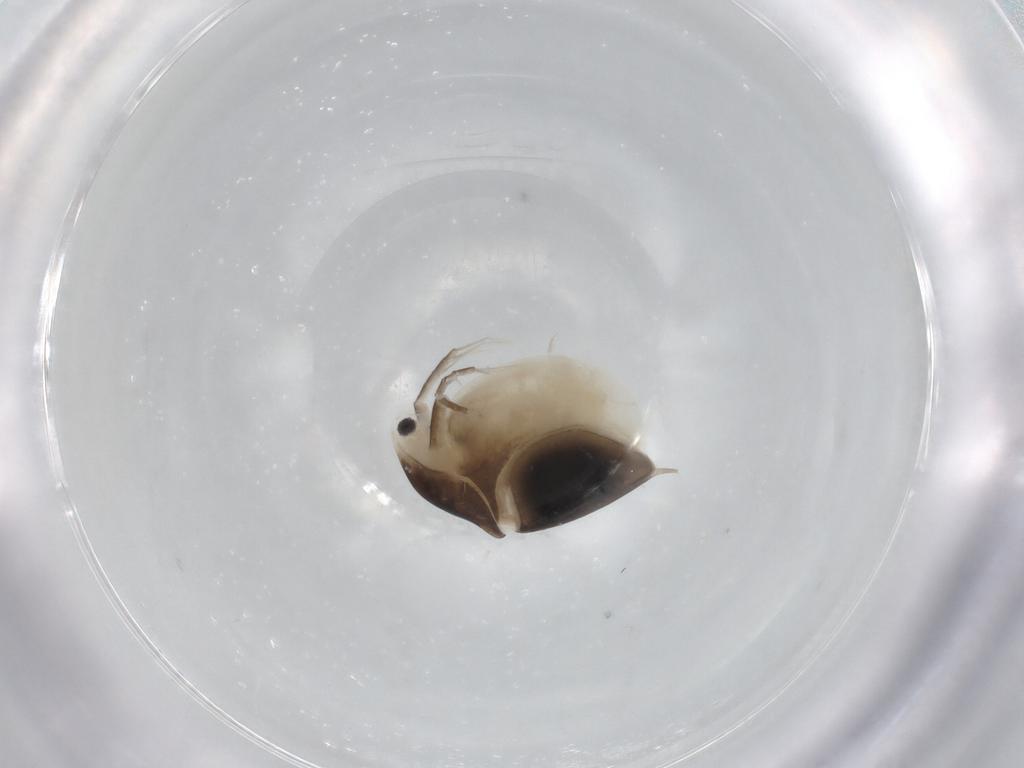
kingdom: Animalia
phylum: Arthropoda
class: Branchiopoda
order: Diplostraca
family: Daphniidae
